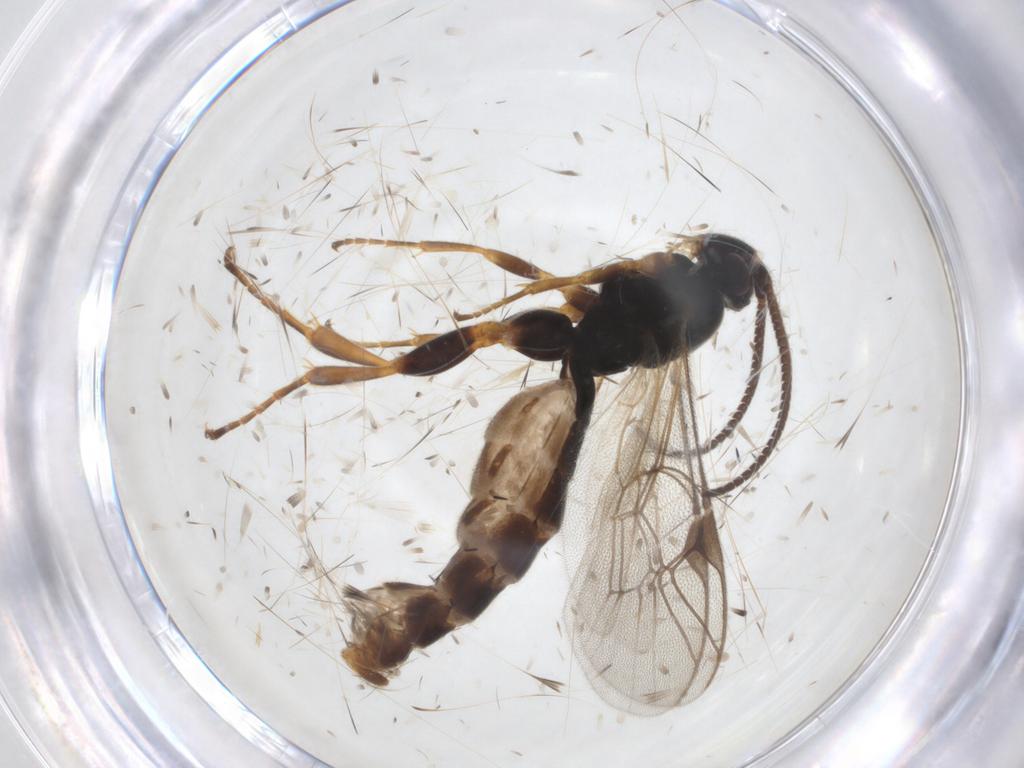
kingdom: Animalia
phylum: Arthropoda
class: Insecta
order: Hymenoptera
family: Ichneumonidae
